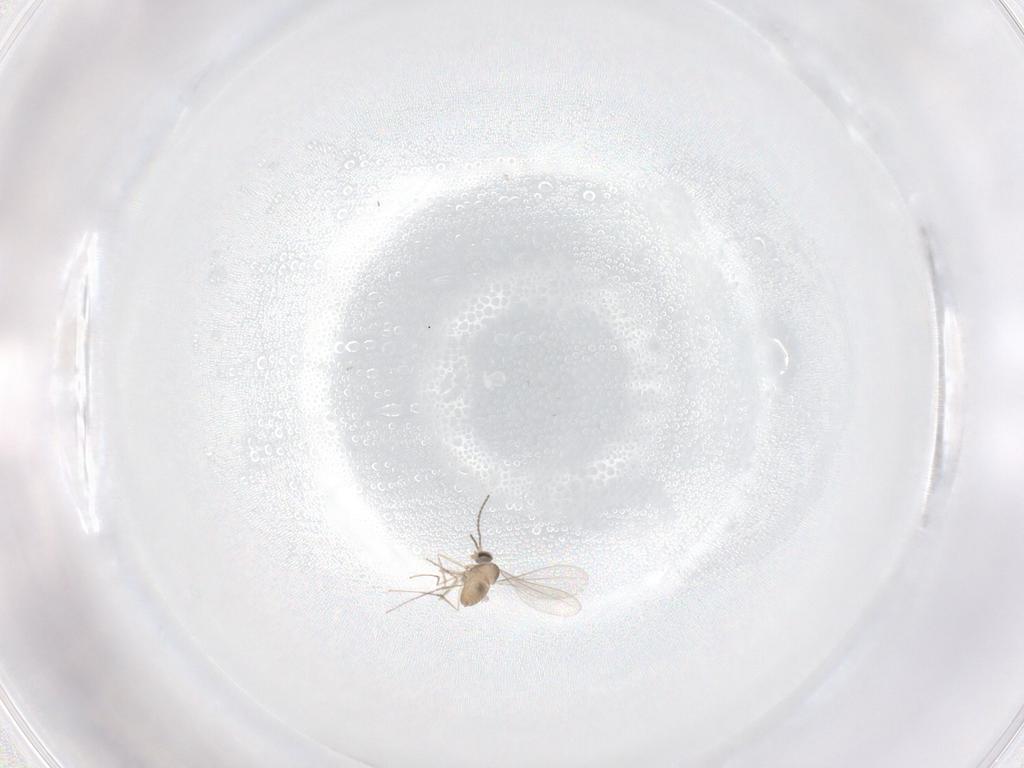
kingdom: Animalia
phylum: Arthropoda
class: Insecta
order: Diptera
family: Cecidomyiidae
